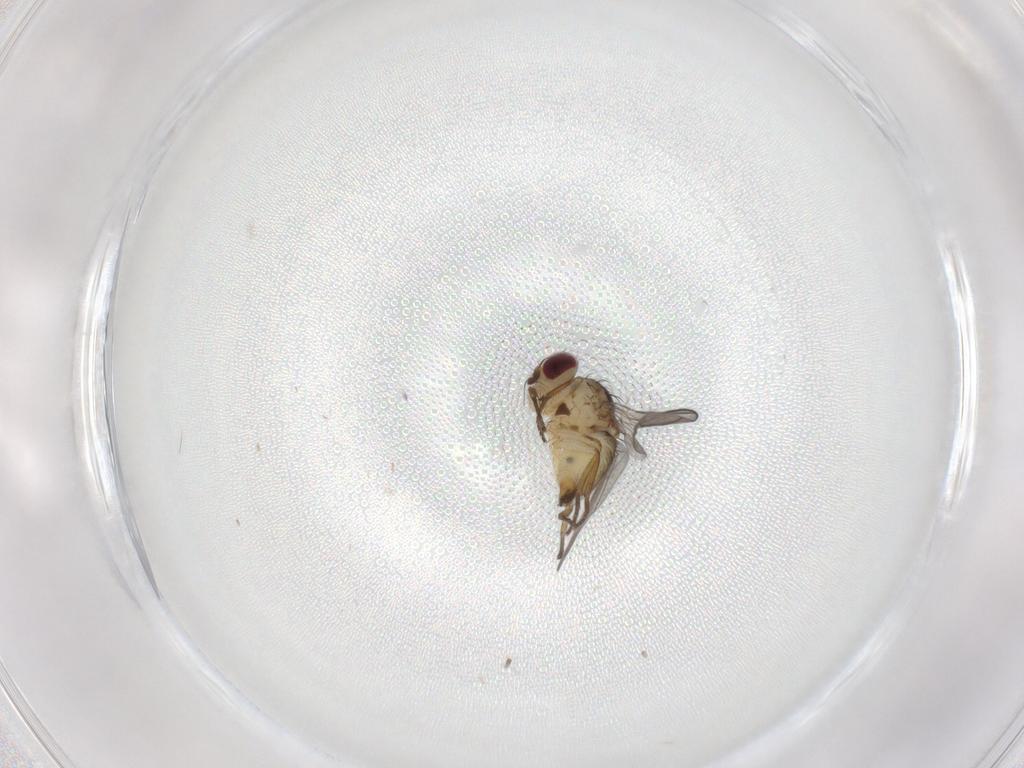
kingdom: Animalia
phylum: Arthropoda
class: Insecta
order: Diptera
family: Agromyzidae
